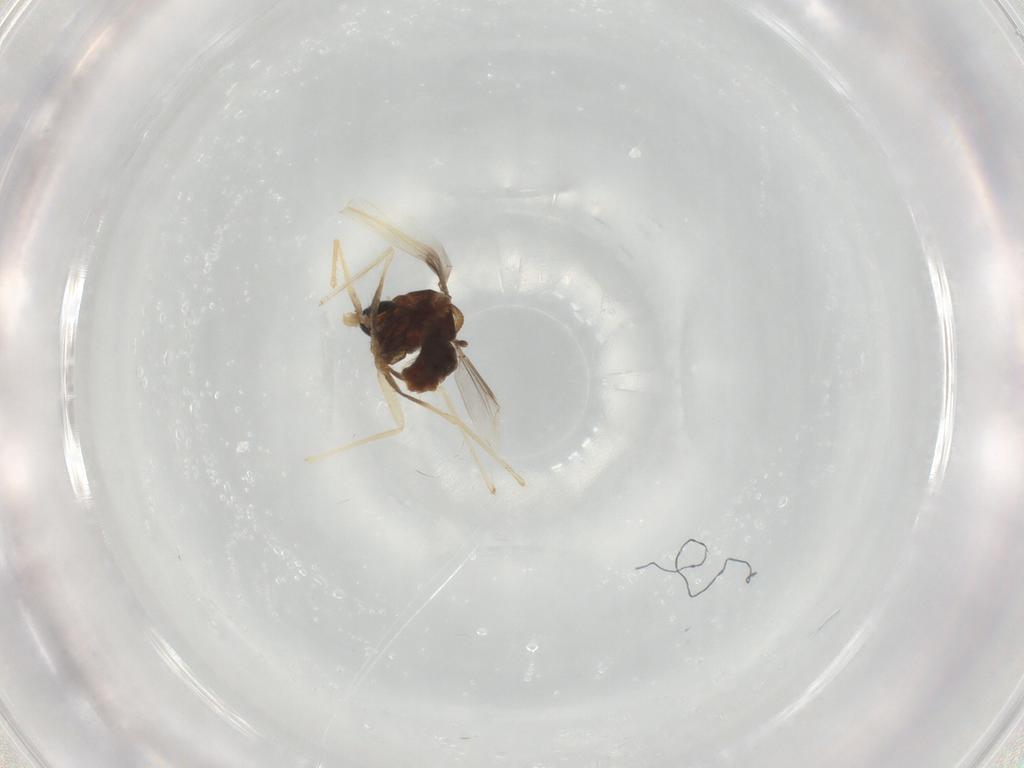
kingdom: Animalia
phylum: Arthropoda
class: Insecta
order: Diptera
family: Chironomidae
